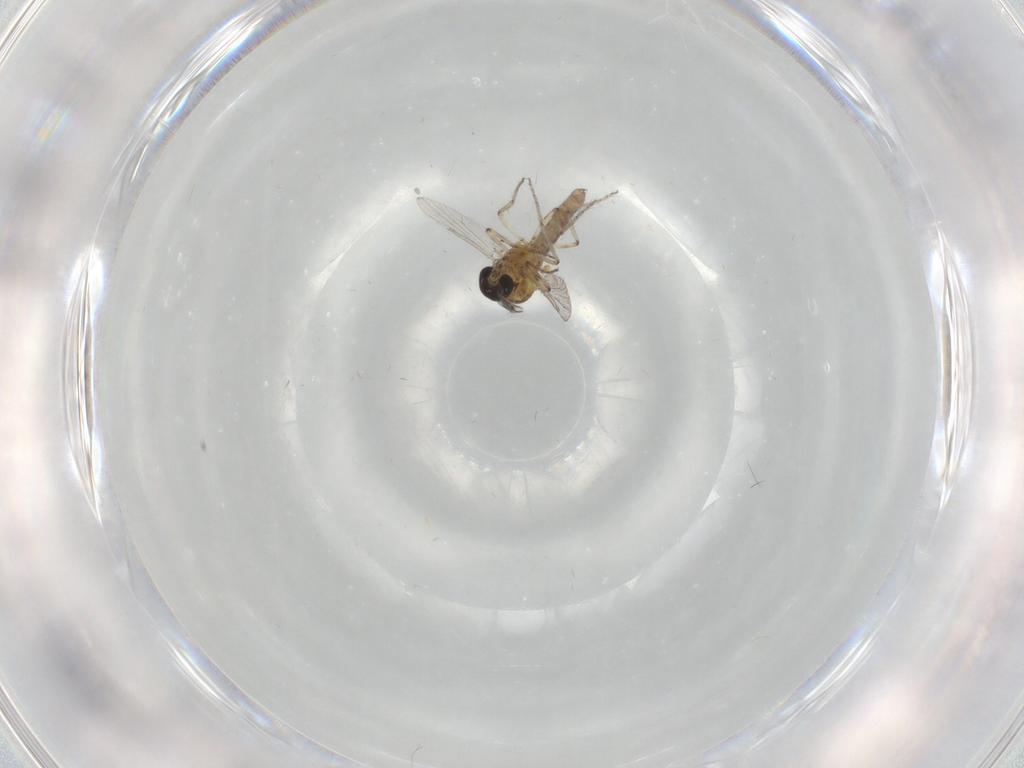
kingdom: Animalia
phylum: Arthropoda
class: Insecta
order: Diptera
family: Ceratopogonidae
